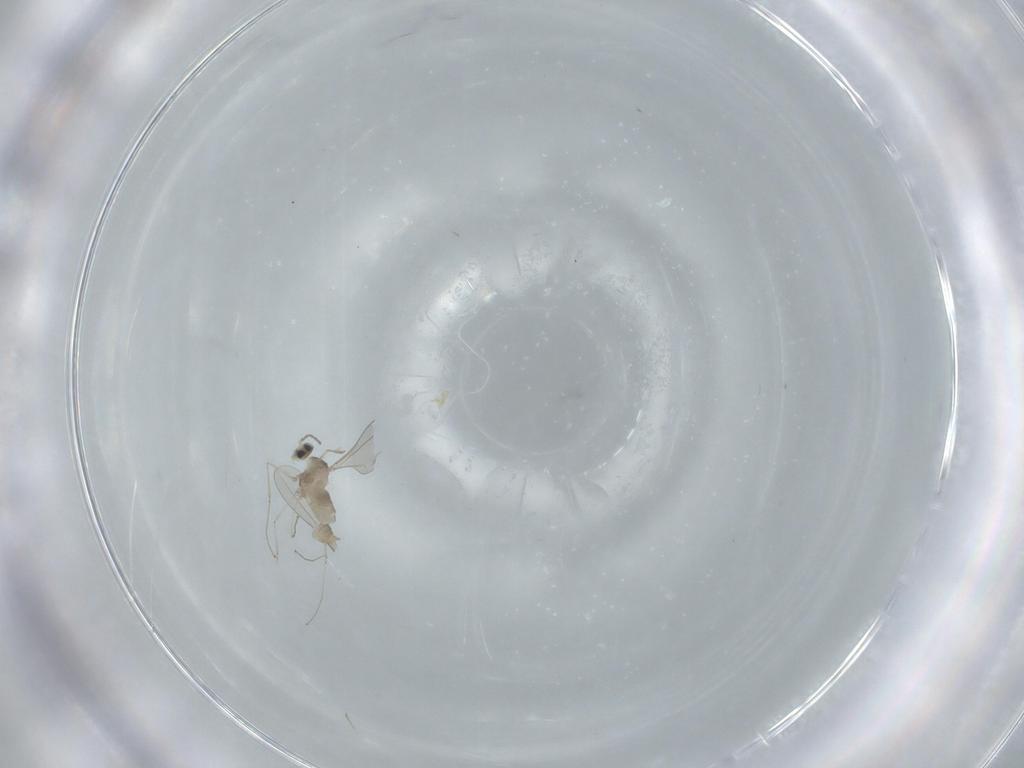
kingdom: Animalia
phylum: Arthropoda
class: Insecta
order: Diptera
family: Cecidomyiidae
